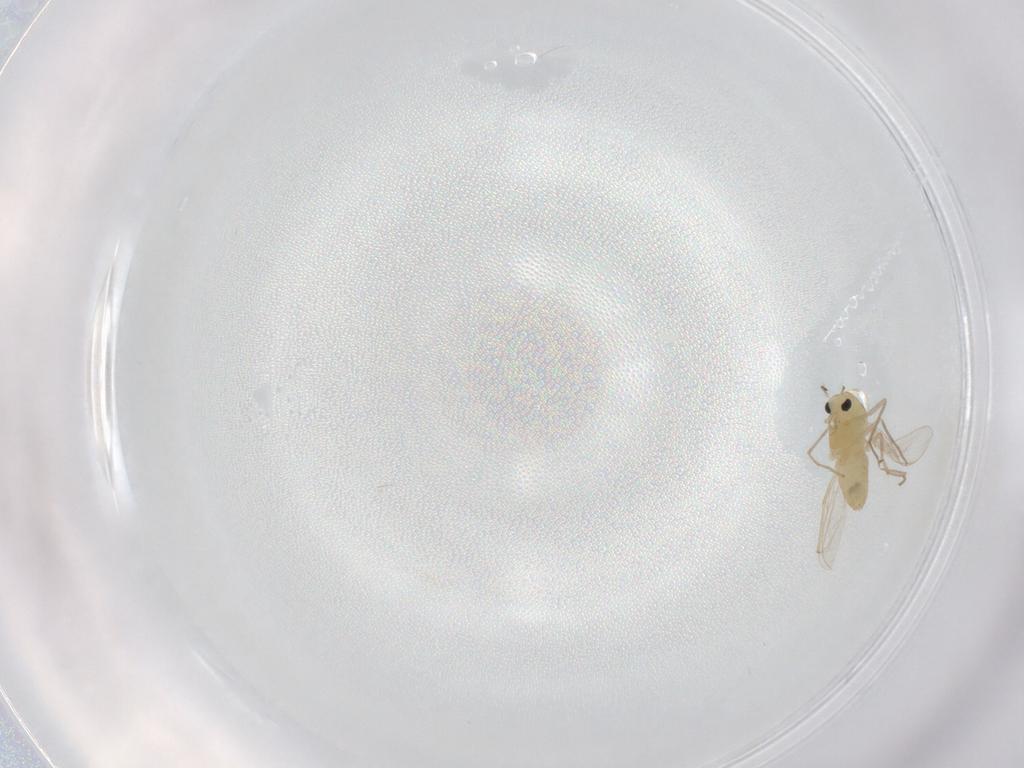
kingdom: Animalia
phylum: Arthropoda
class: Insecta
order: Diptera
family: Chironomidae
